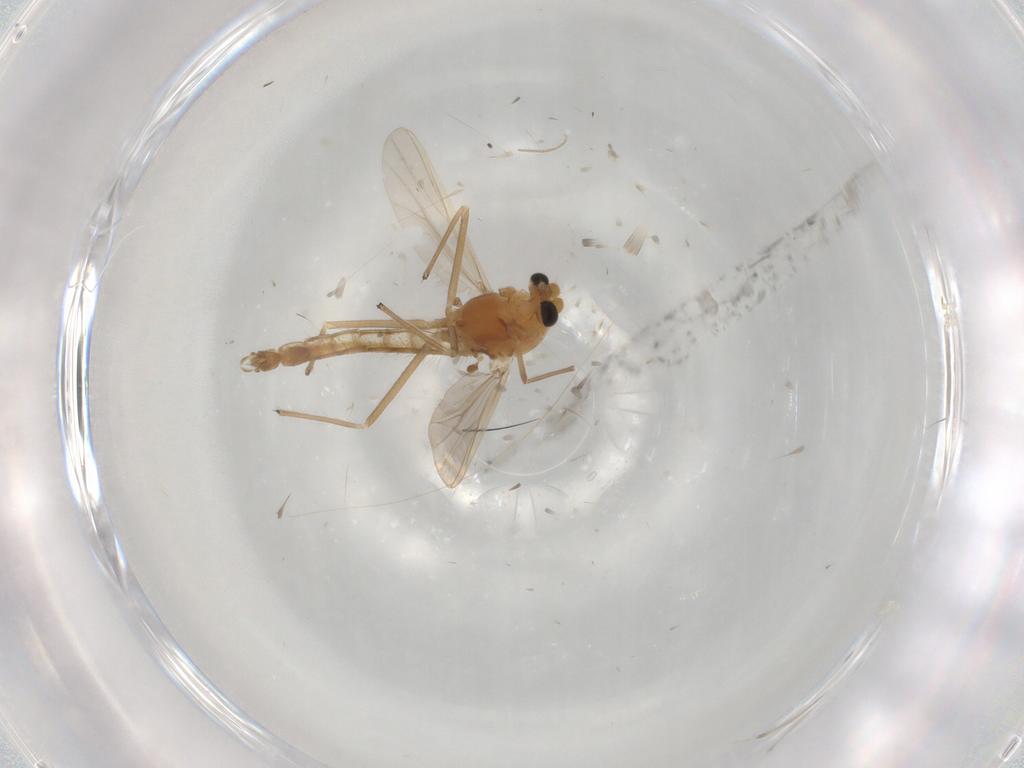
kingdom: Animalia
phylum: Arthropoda
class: Insecta
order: Diptera
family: Chironomidae
